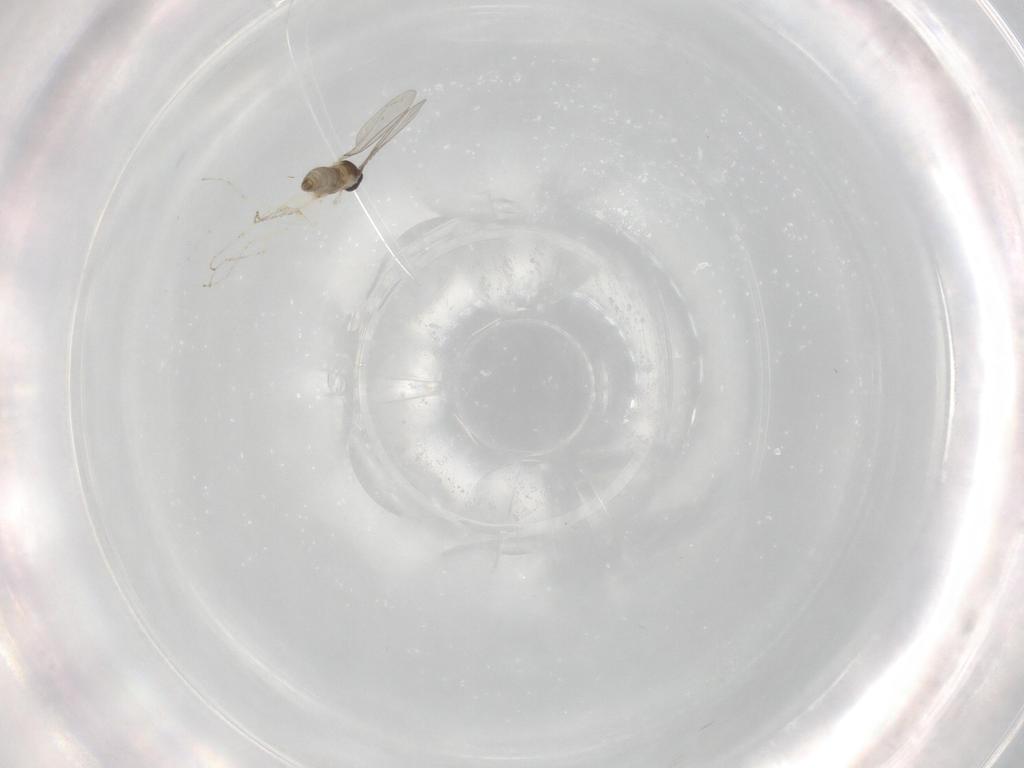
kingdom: Animalia
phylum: Arthropoda
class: Insecta
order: Diptera
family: Cecidomyiidae
